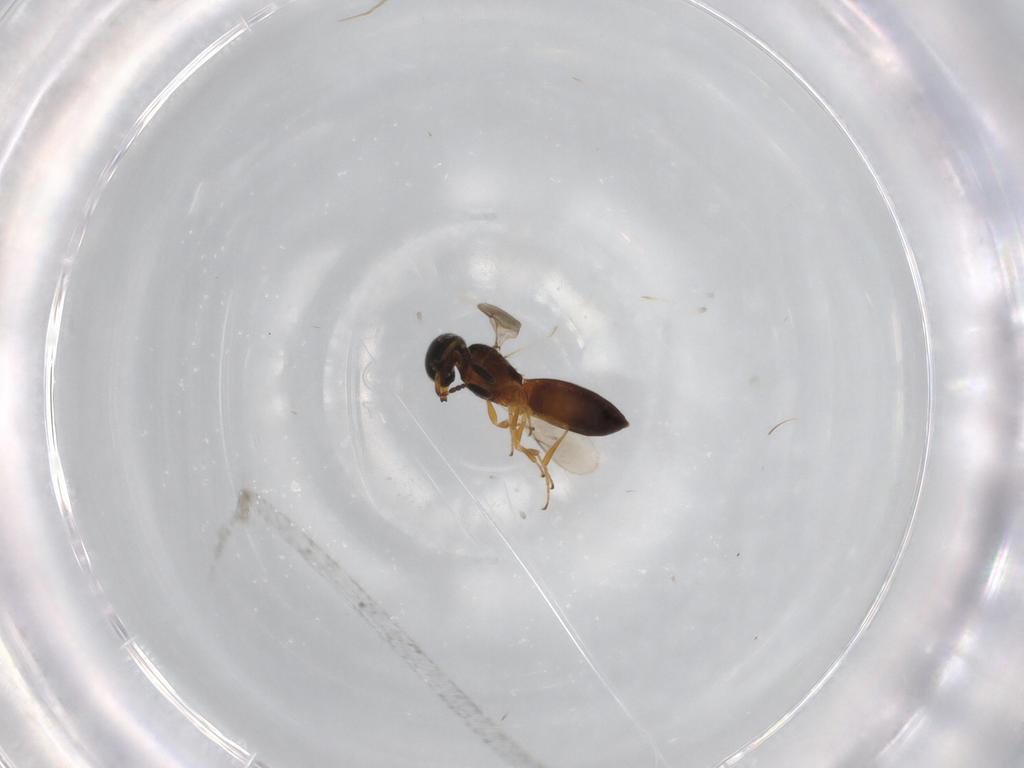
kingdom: Animalia
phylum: Arthropoda
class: Insecta
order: Hymenoptera
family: Scelionidae
